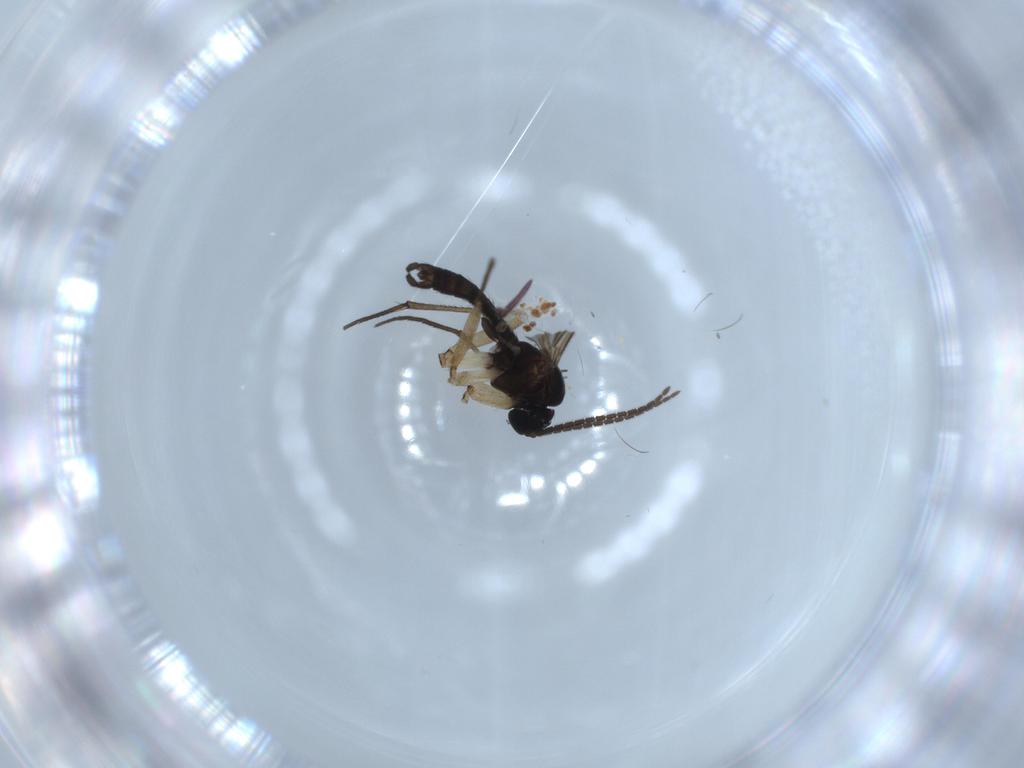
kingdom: Animalia
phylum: Arthropoda
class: Insecta
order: Diptera
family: Sciaridae
